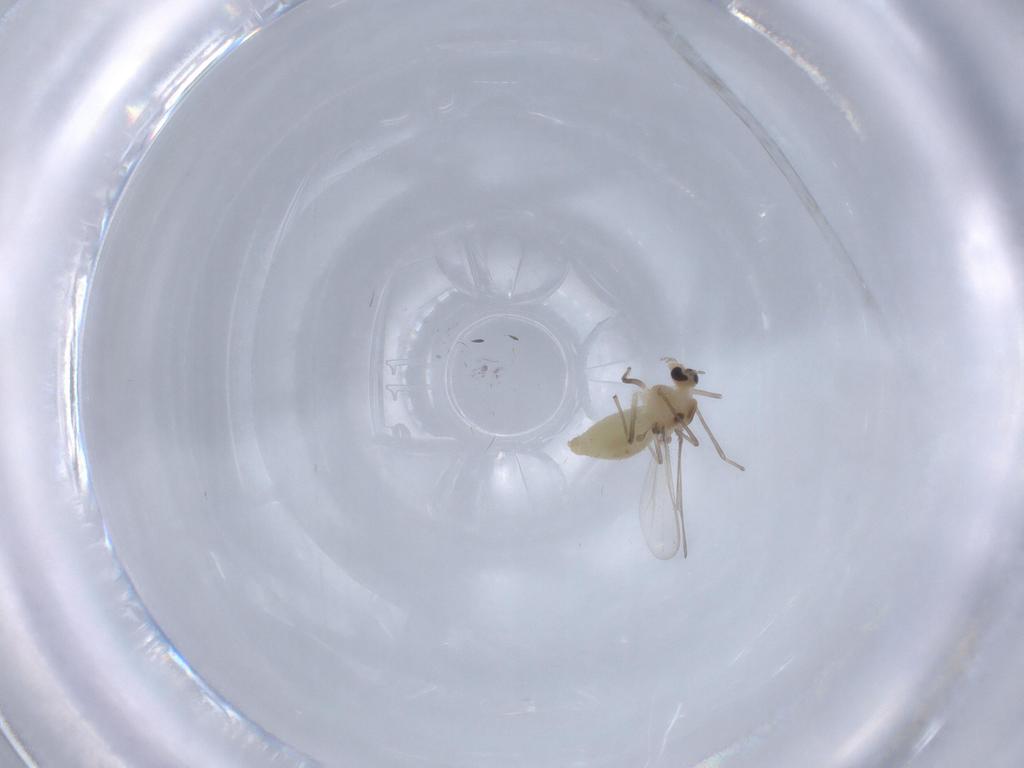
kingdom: Animalia
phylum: Arthropoda
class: Insecta
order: Diptera
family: Chironomidae
